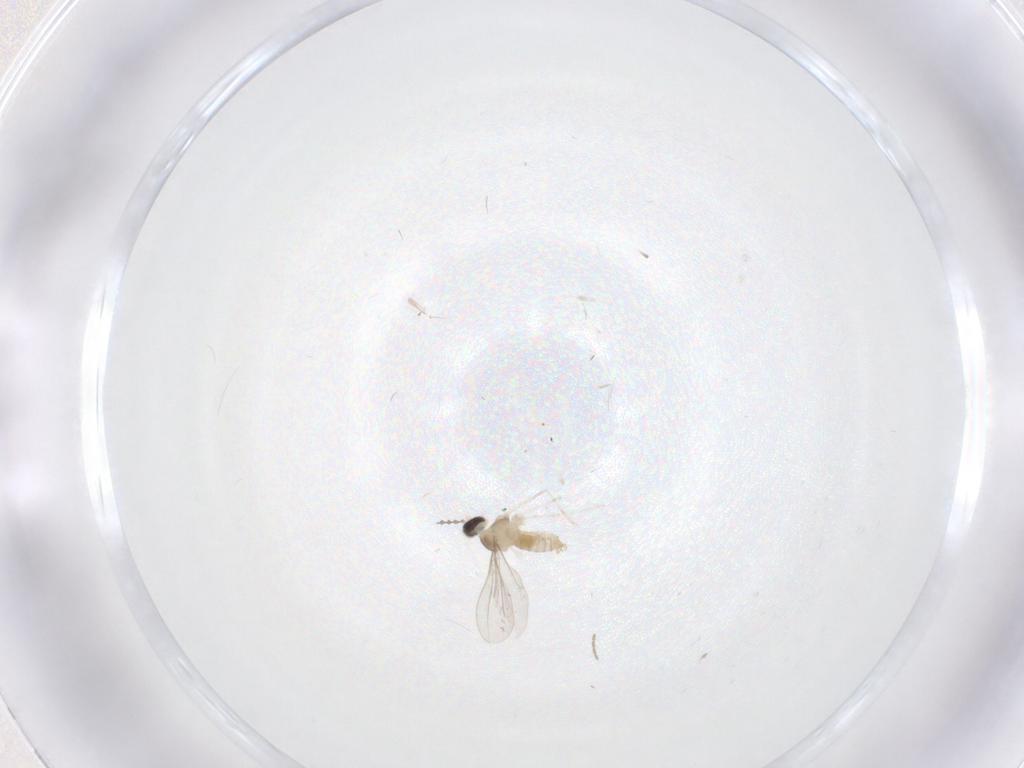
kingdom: Animalia
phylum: Arthropoda
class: Insecta
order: Diptera
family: Cecidomyiidae
